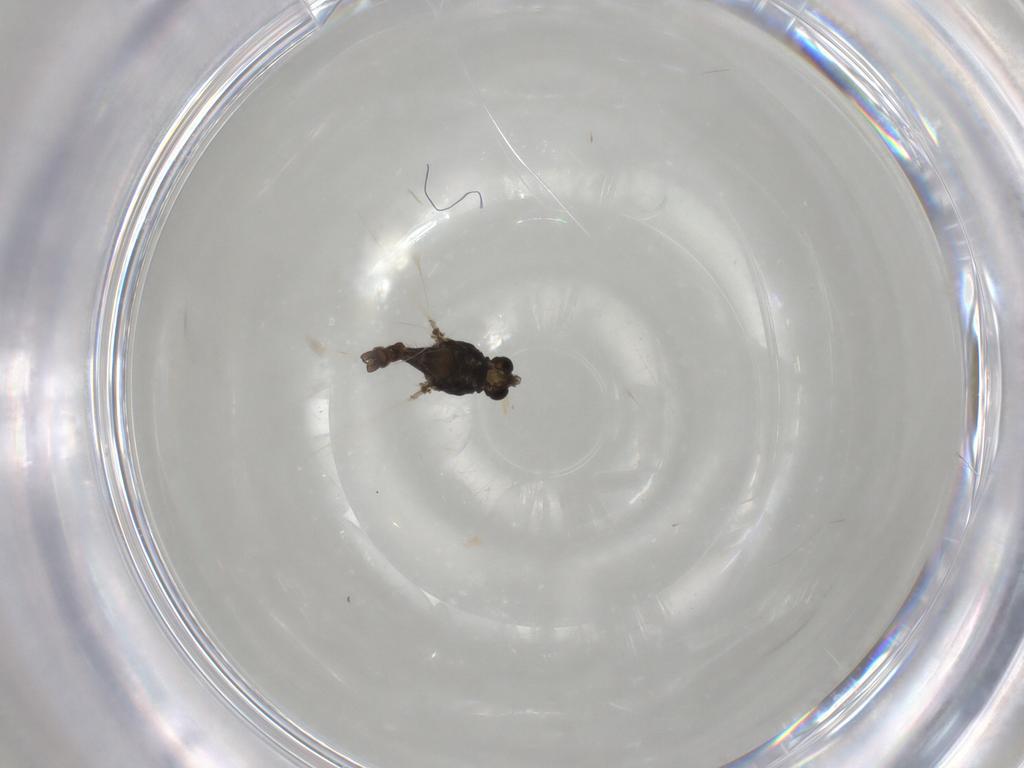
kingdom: Animalia
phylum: Arthropoda
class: Insecta
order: Diptera
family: Chironomidae
